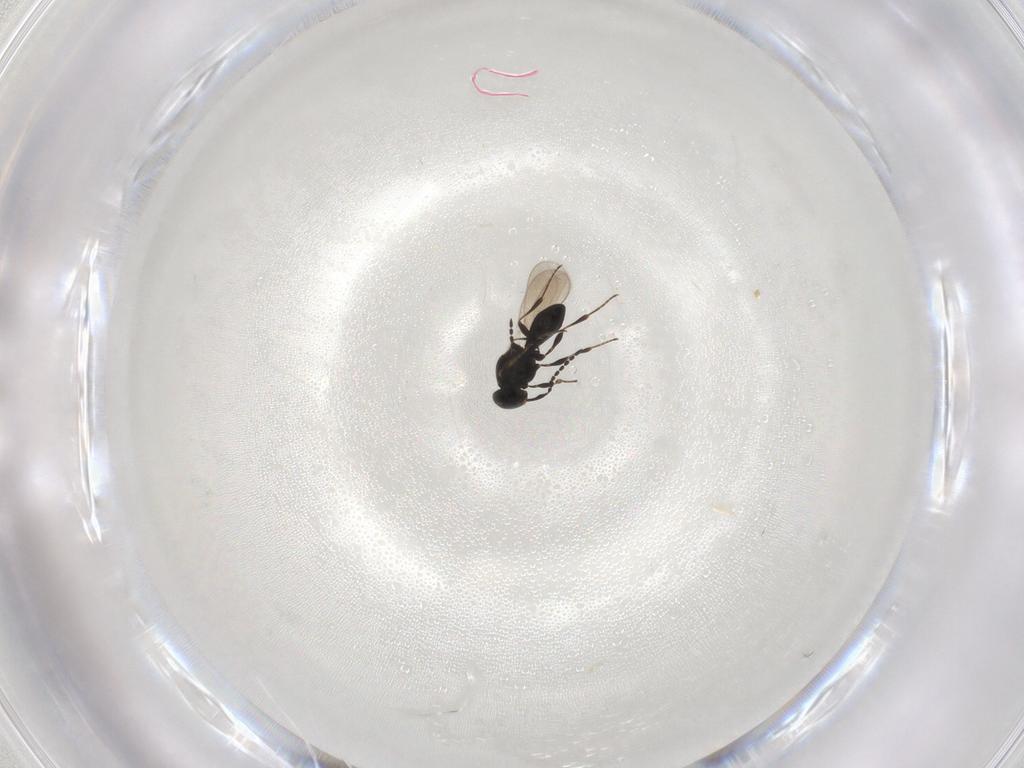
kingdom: Animalia
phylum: Arthropoda
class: Insecta
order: Hymenoptera
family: Platygastridae
